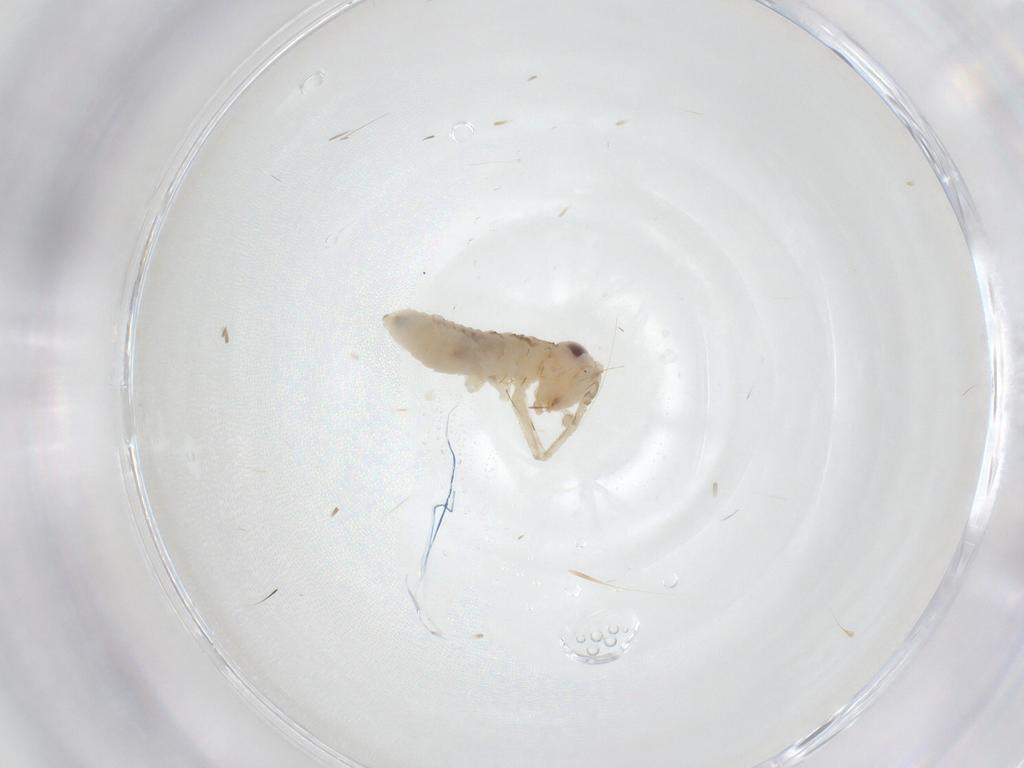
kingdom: Animalia
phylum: Arthropoda
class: Insecta
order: Orthoptera
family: Trigonidiidae
